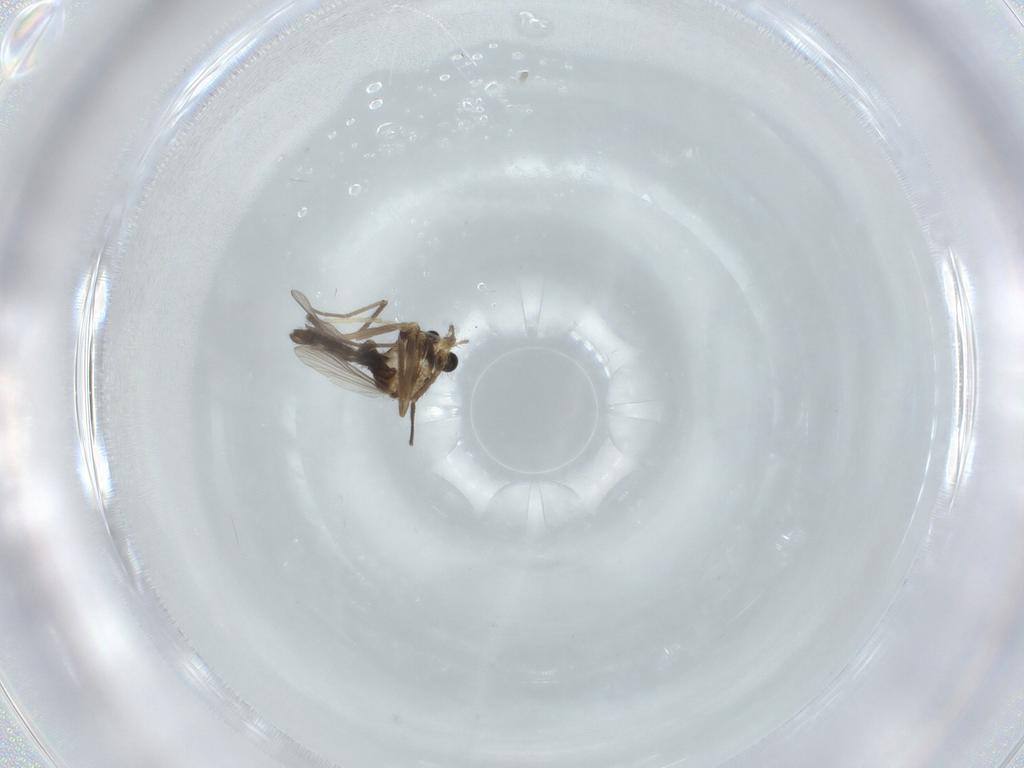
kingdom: Animalia
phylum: Arthropoda
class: Insecta
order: Diptera
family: Chironomidae
